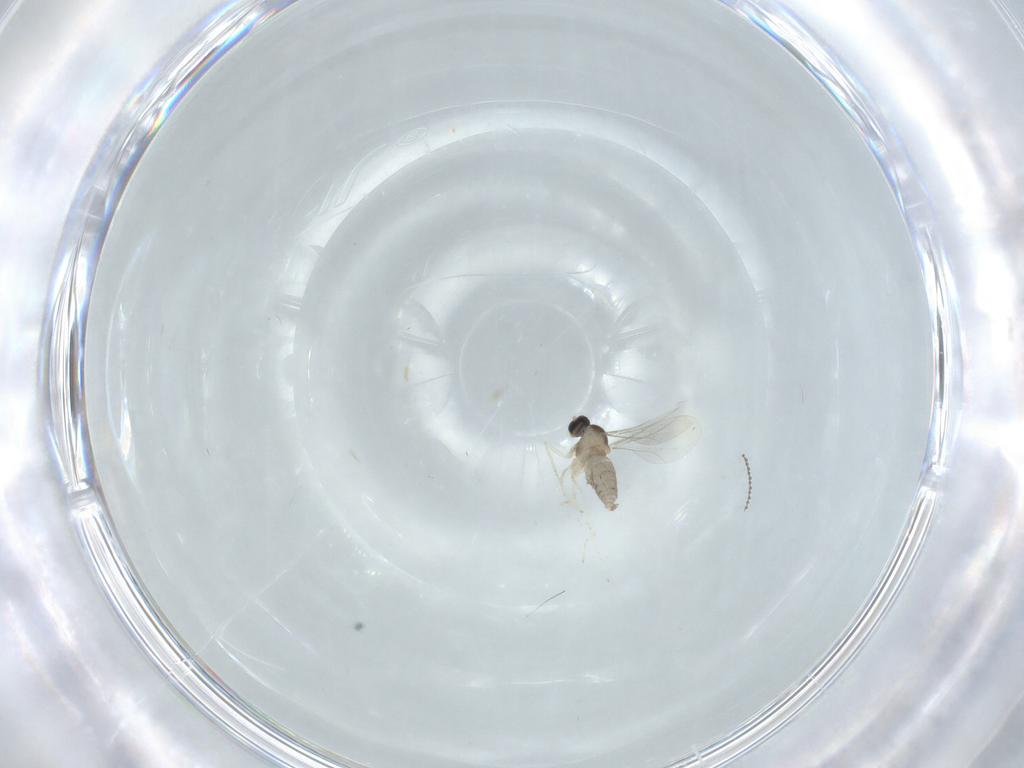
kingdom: Animalia
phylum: Arthropoda
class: Insecta
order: Diptera
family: Cecidomyiidae
